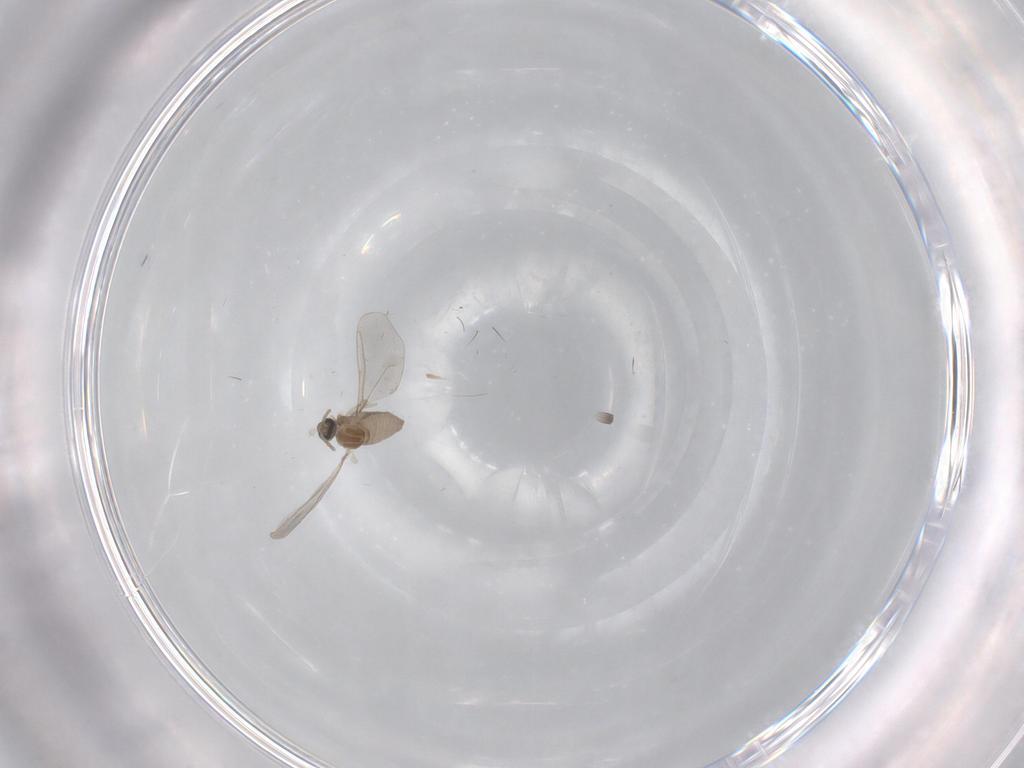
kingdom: Animalia
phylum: Arthropoda
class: Insecta
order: Diptera
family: Cecidomyiidae
